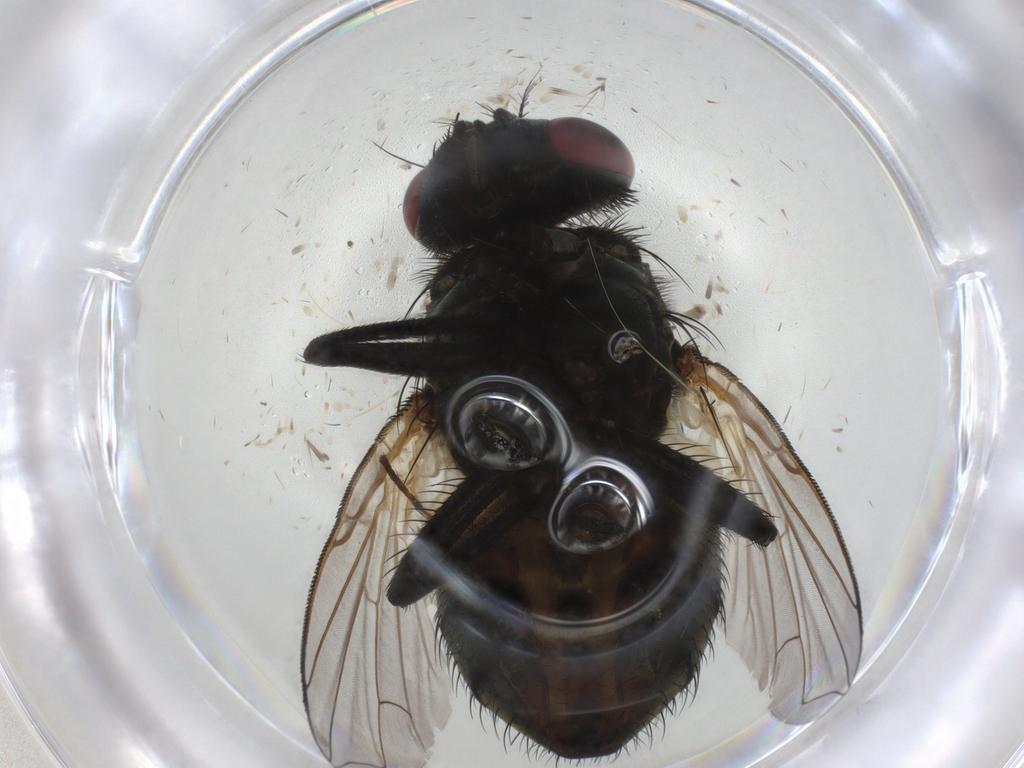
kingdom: Animalia
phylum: Arthropoda
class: Insecta
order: Diptera
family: Muscidae
